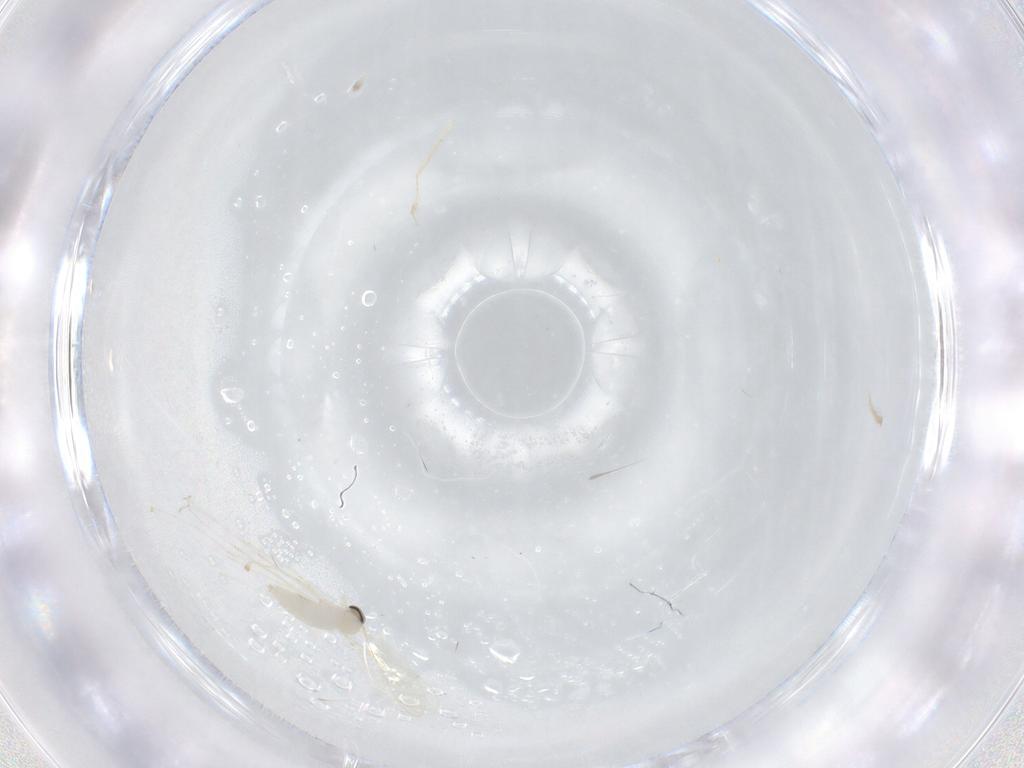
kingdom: Animalia
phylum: Arthropoda
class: Insecta
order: Diptera
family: Cecidomyiidae
